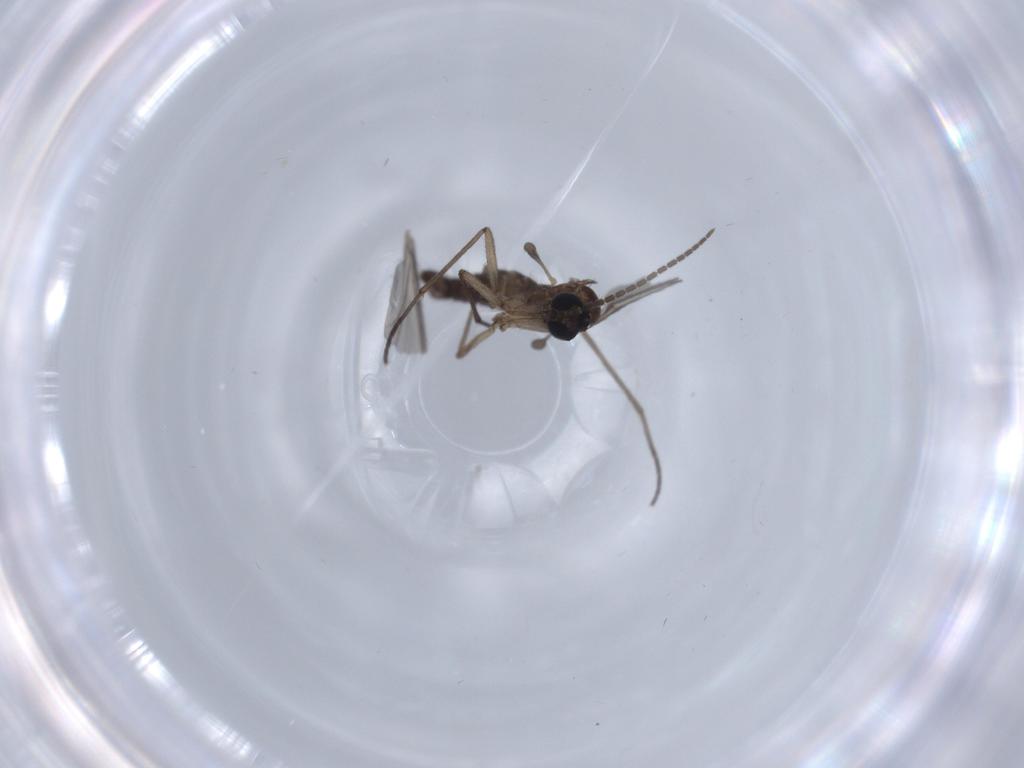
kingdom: Animalia
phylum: Arthropoda
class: Insecta
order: Diptera
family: Sciaridae
